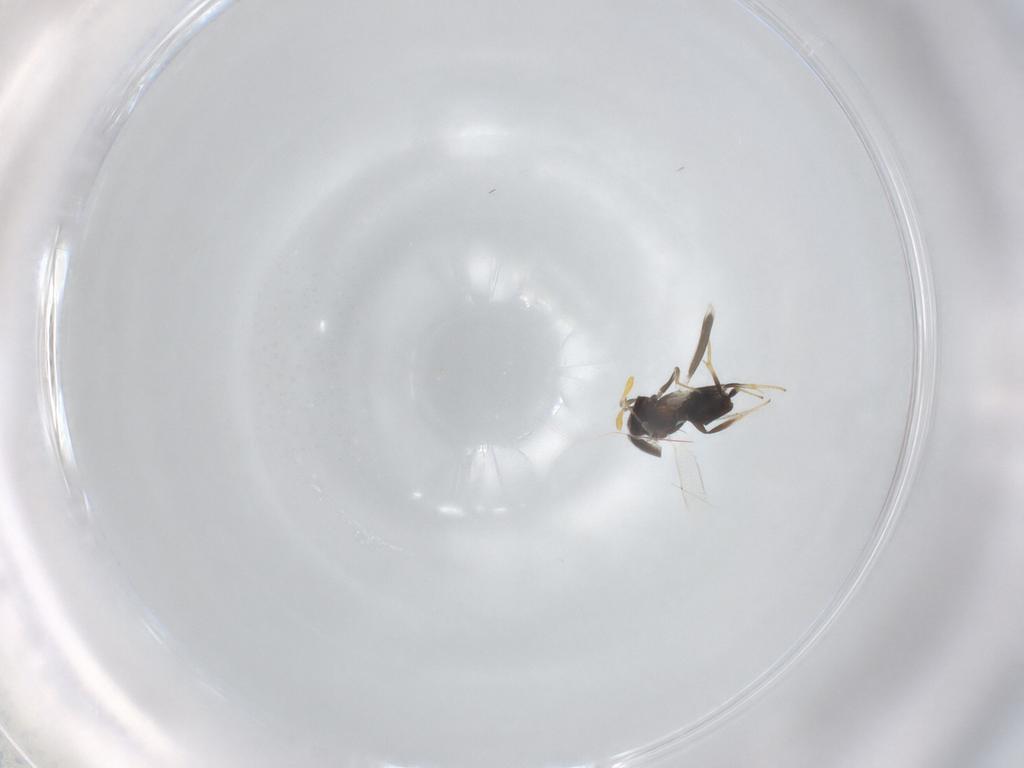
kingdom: Animalia
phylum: Arthropoda
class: Insecta
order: Hymenoptera
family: Aphelinidae
